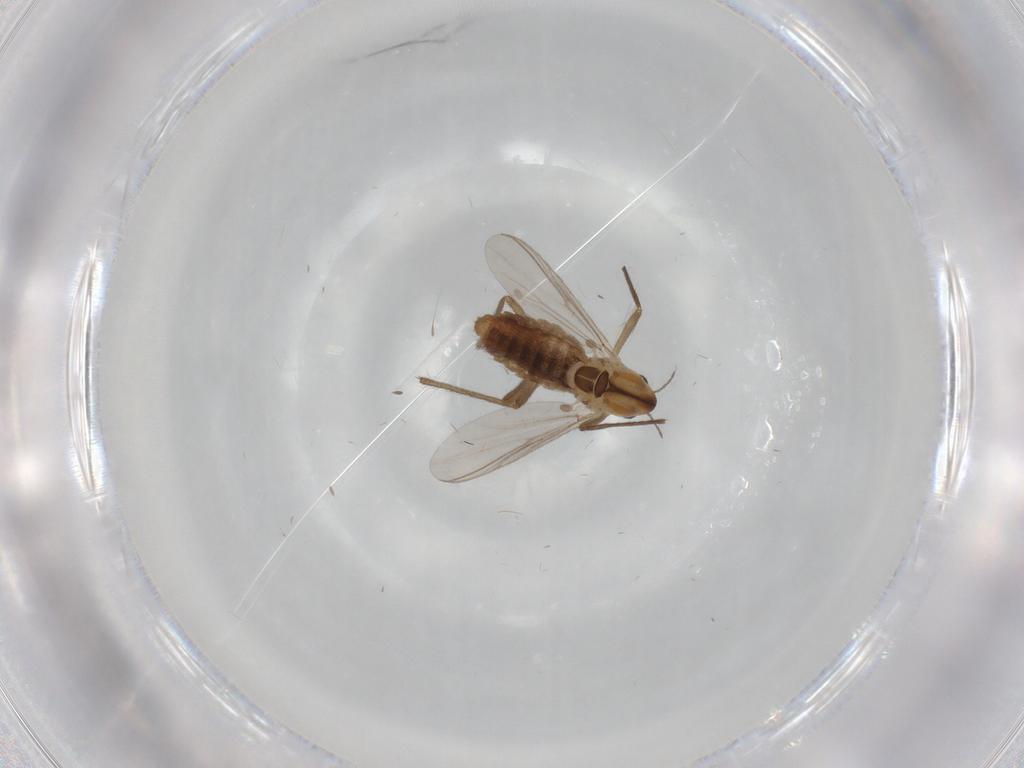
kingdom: Animalia
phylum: Arthropoda
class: Insecta
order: Diptera
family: Chironomidae
